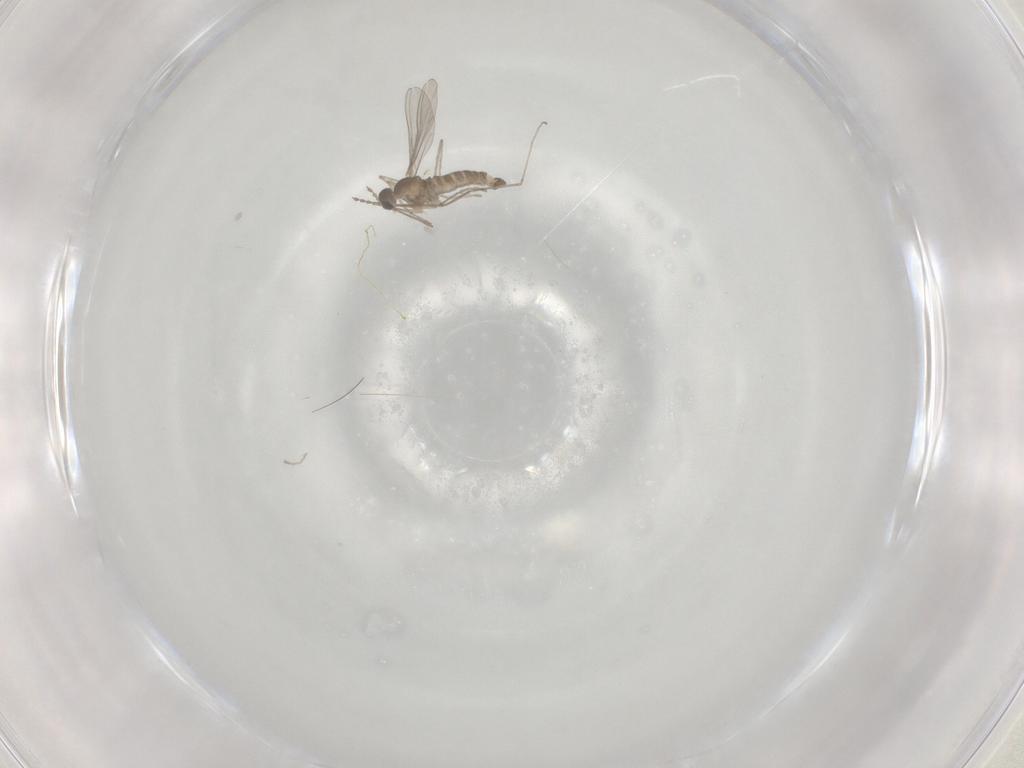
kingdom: Animalia
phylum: Arthropoda
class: Insecta
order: Diptera
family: Cecidomyiidae
